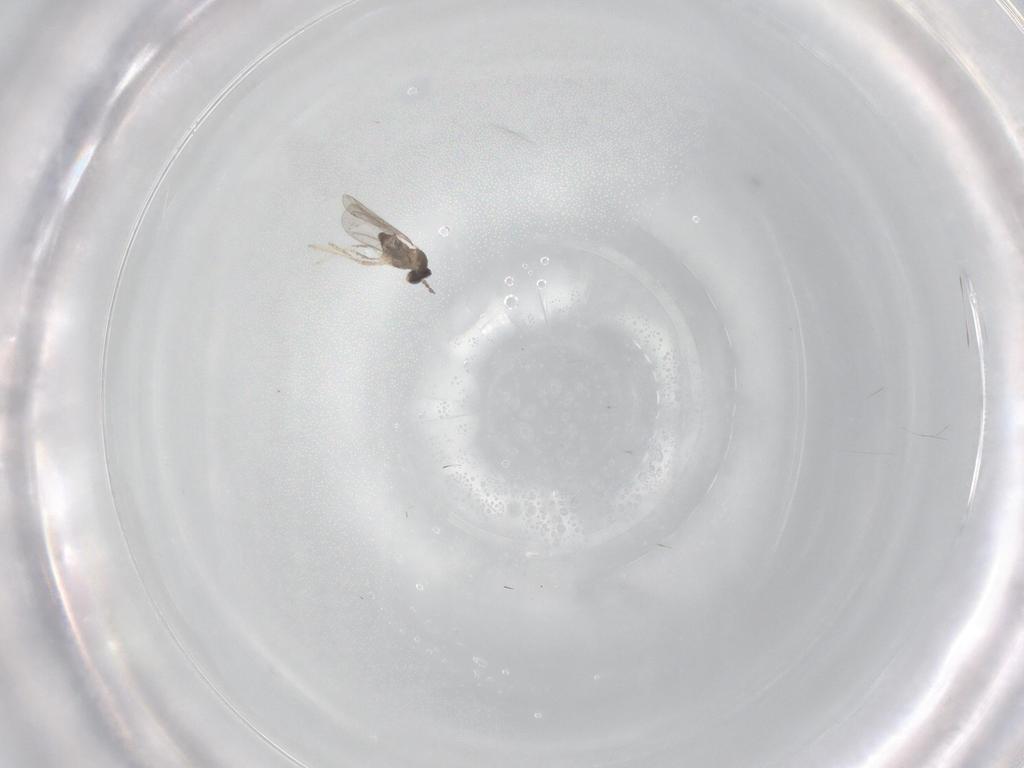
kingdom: Animalia
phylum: Arthropoda
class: Insecta
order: Diptera
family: Cecidomyiidae
